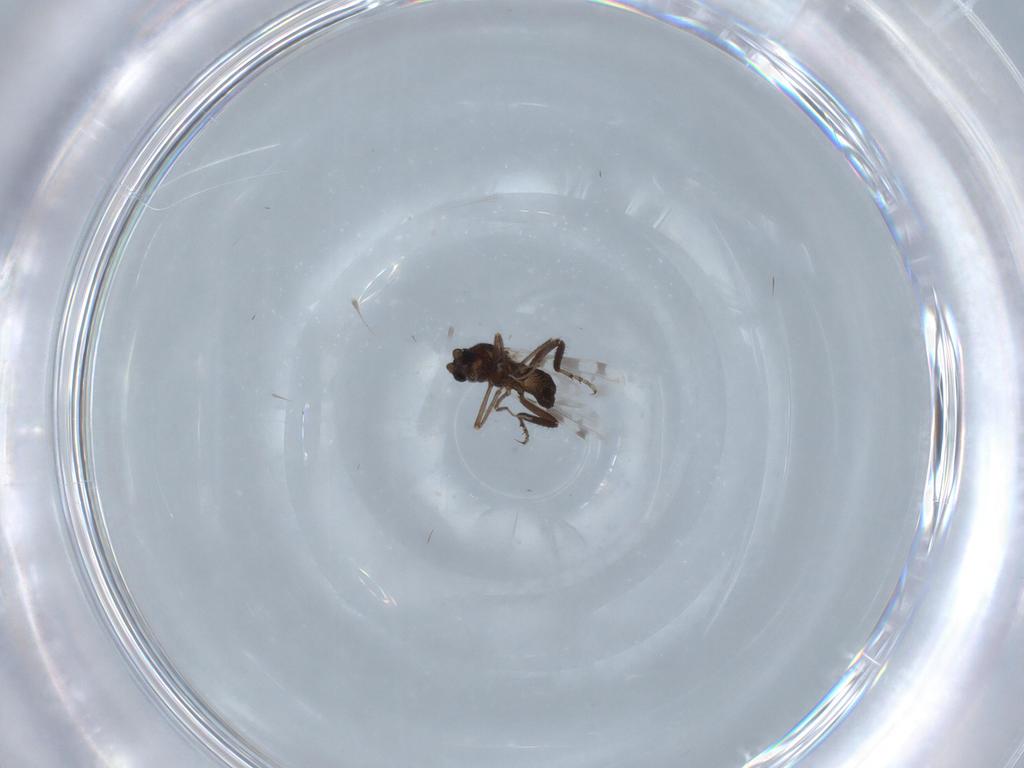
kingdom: Animalia
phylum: Arthropoda
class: Insecta
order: Diptera
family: Ceratopogonidae
